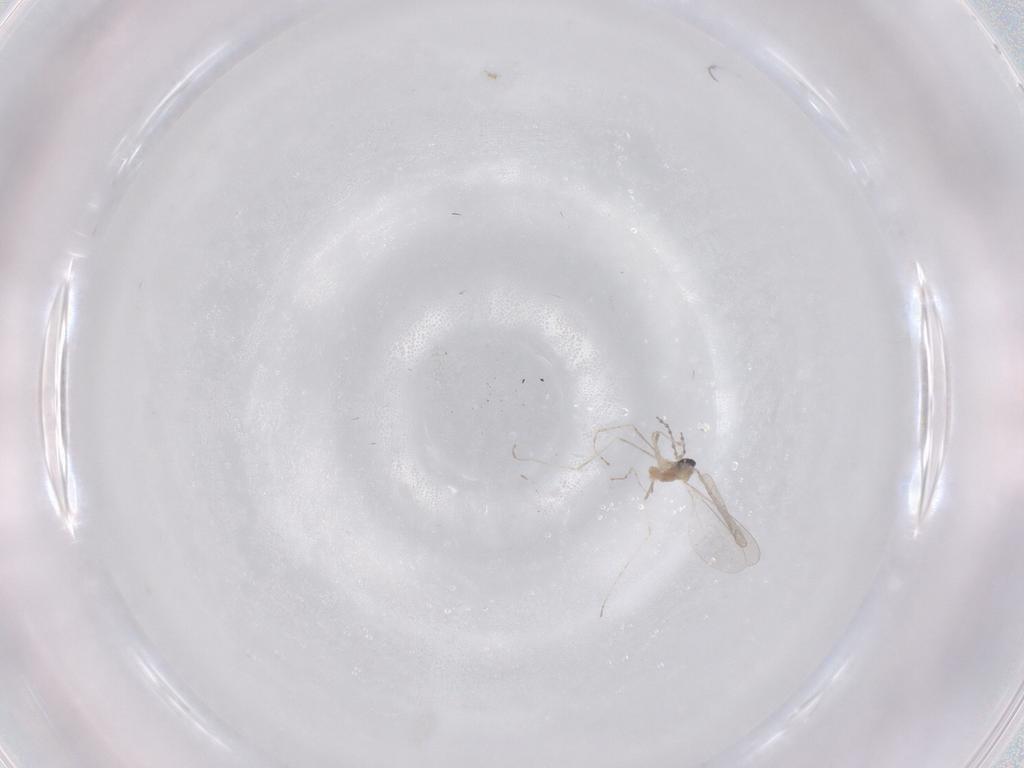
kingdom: Animalia
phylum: Arthropoda
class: Insecta
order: Diptera
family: Cecidomyiidae
